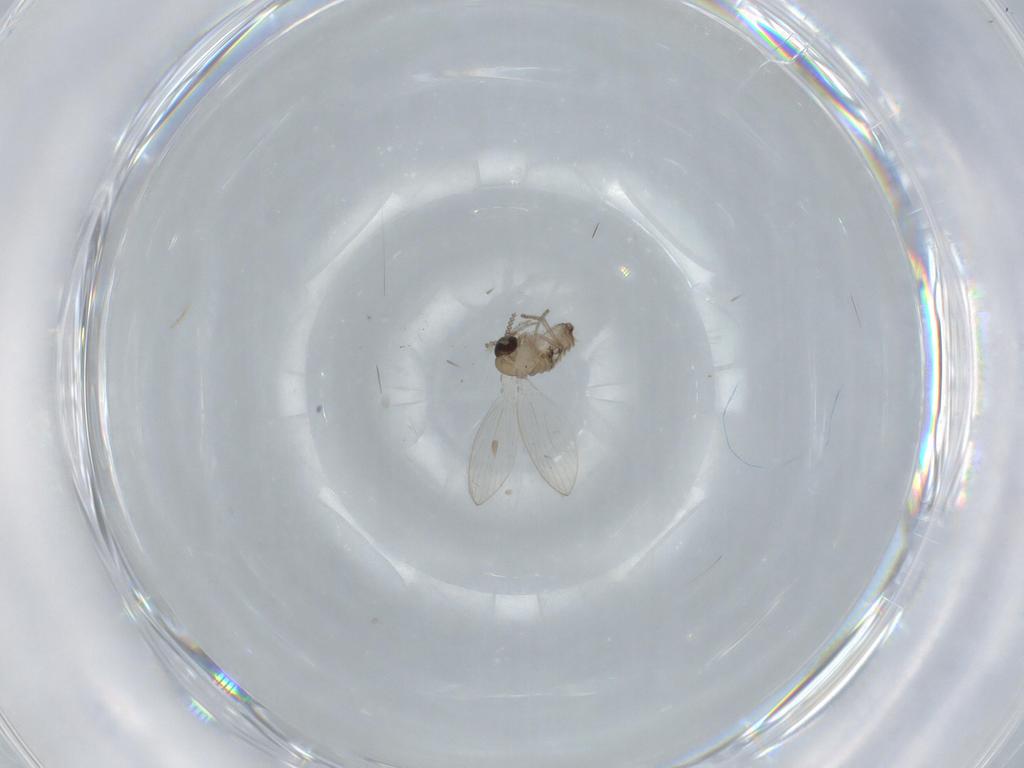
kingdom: Animalia
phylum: Arthropoda
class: Insecta
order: Diptera
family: Psychodidae
